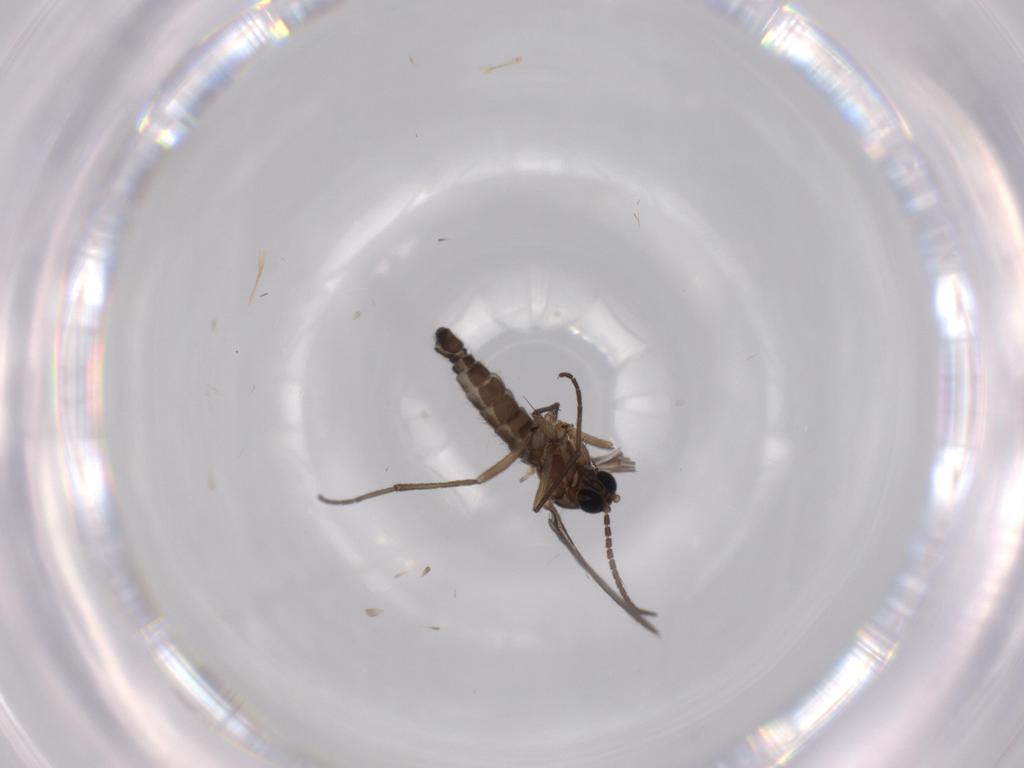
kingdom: Animalia
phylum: Arthropoda
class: Insecta
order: Diptera
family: Sciaridae
